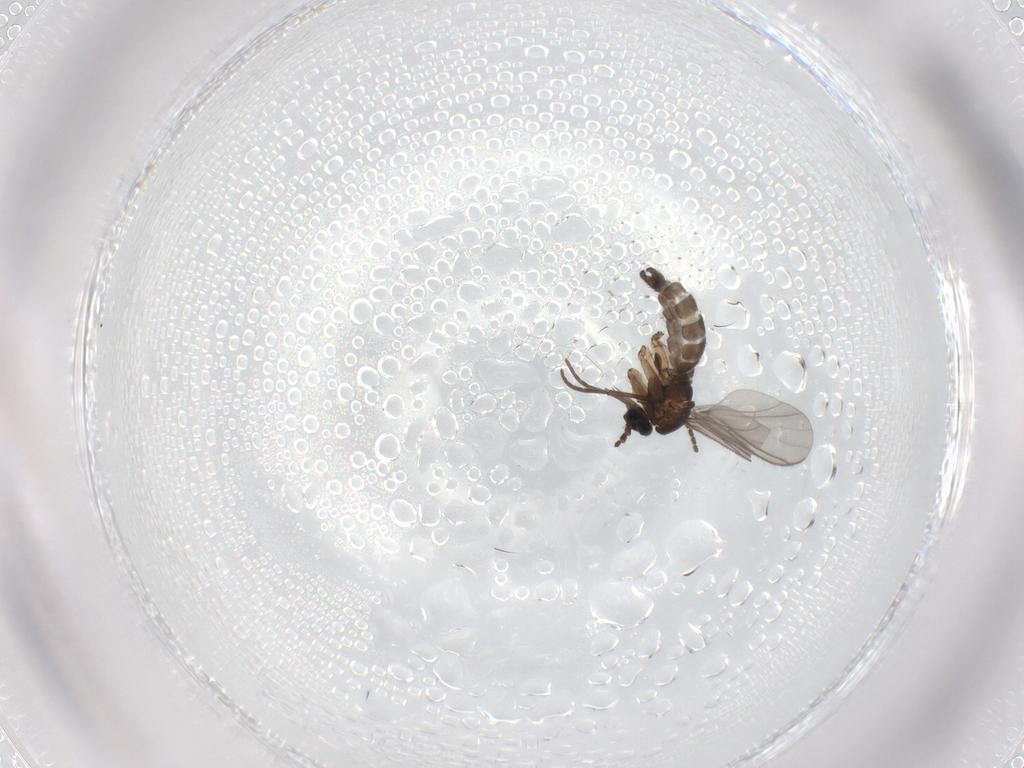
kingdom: Animalia
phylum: Arthropoda
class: Insecta
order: Diptera
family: Sciaridae
